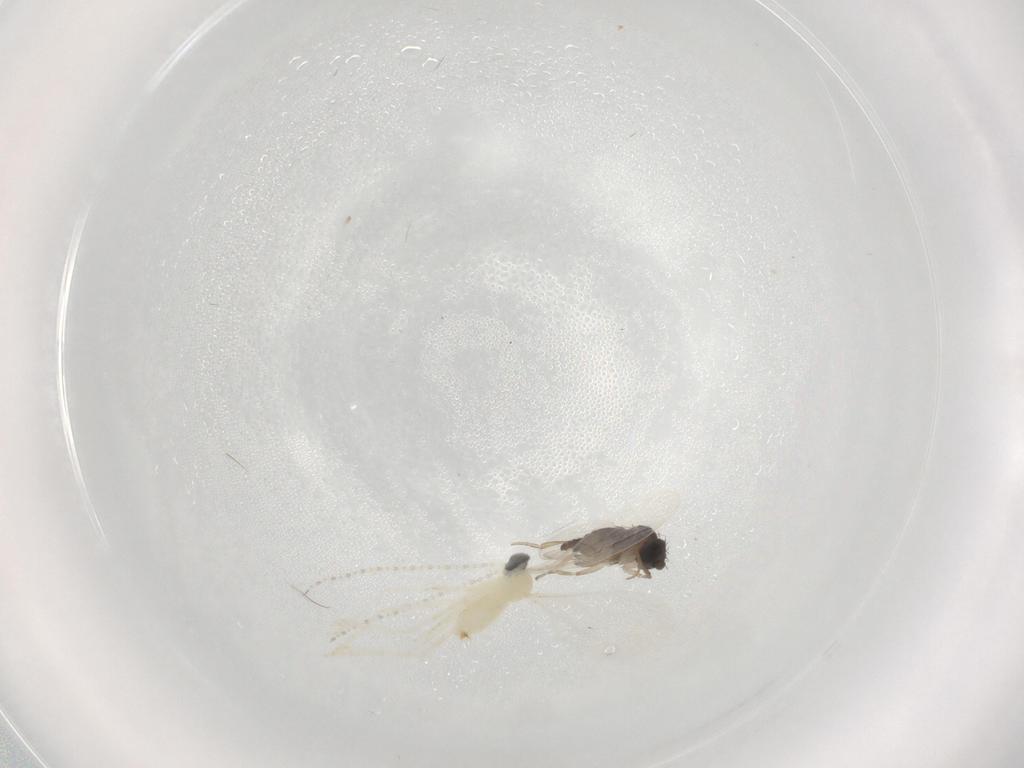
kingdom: Animalia
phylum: Arthropoda
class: Insecta
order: Diptera
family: Cecidomyiidae
